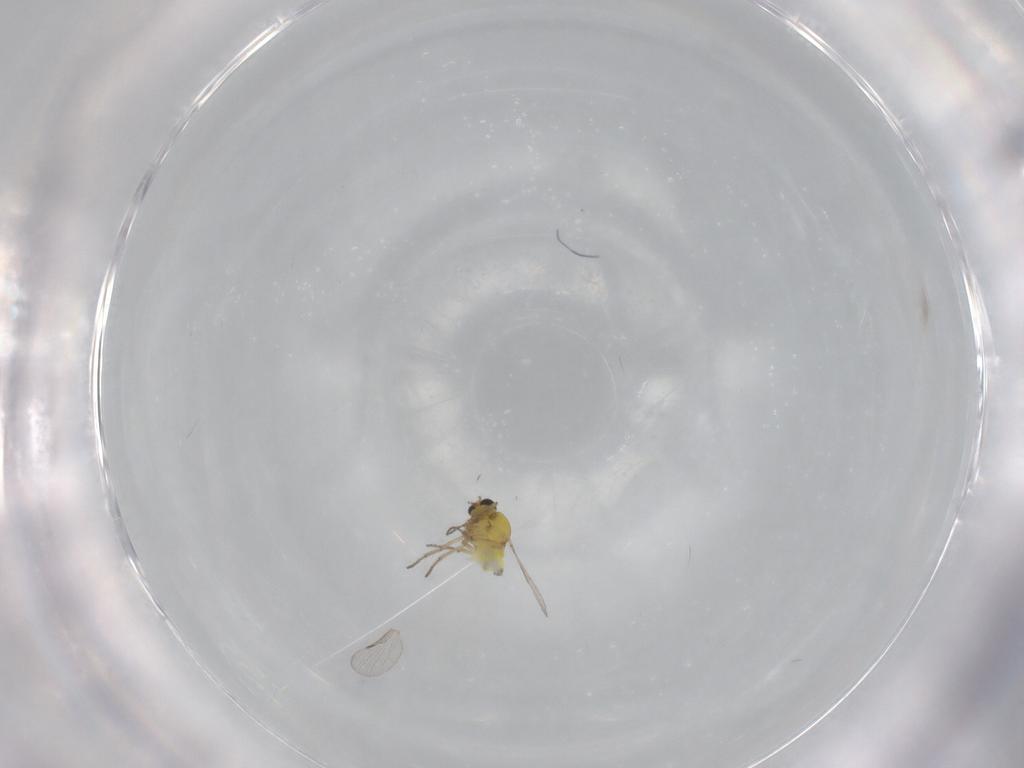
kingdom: Animalia
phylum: Arthropoda
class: Insecta
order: Diptera
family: Ceratopogonidae
